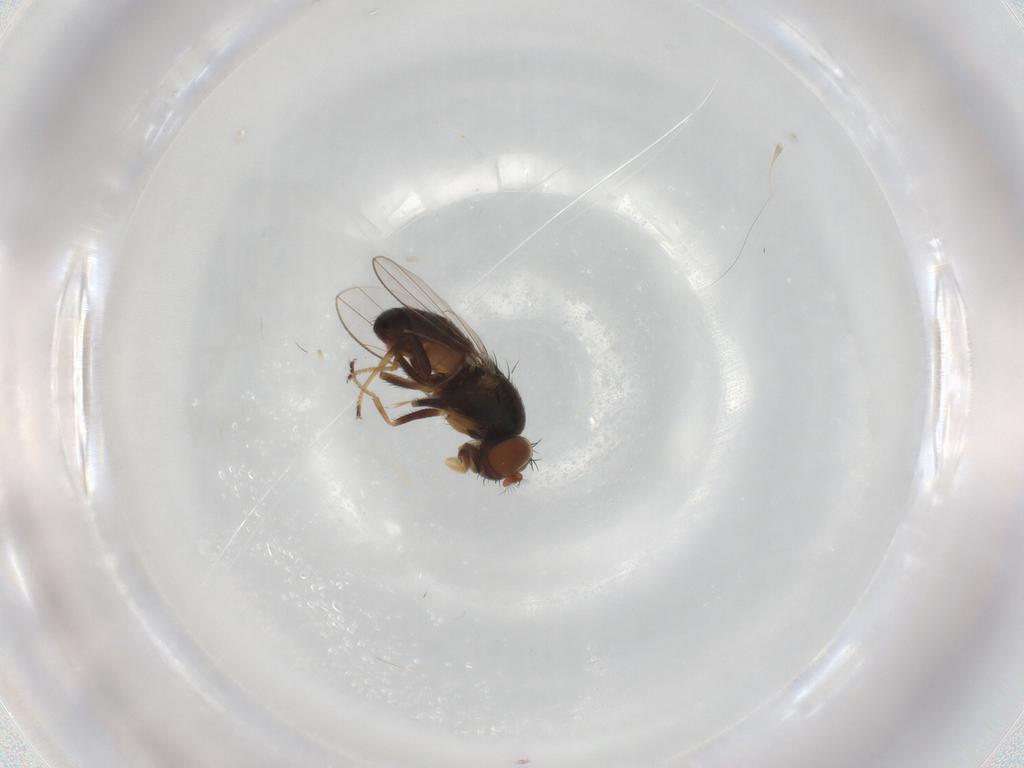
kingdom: Animalia
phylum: Arthropoda
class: Insecta
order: Diptera
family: Ephydridae
